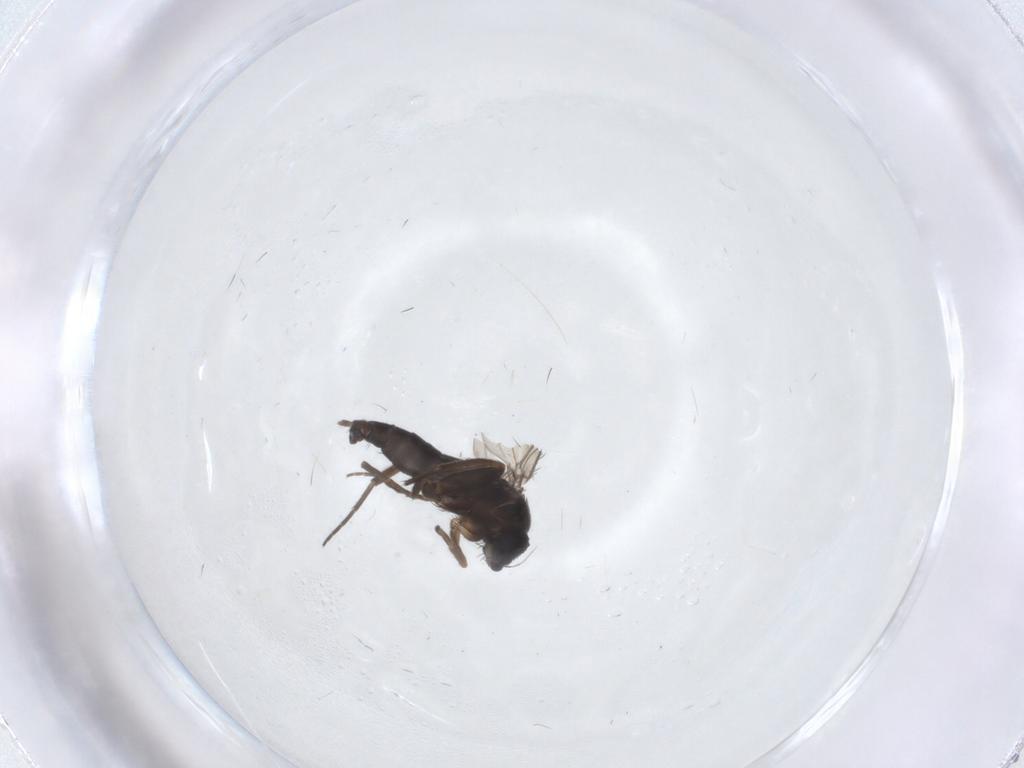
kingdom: Animalia
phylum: Arthropoda
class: Insecta
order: Diptera
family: Phoridae
